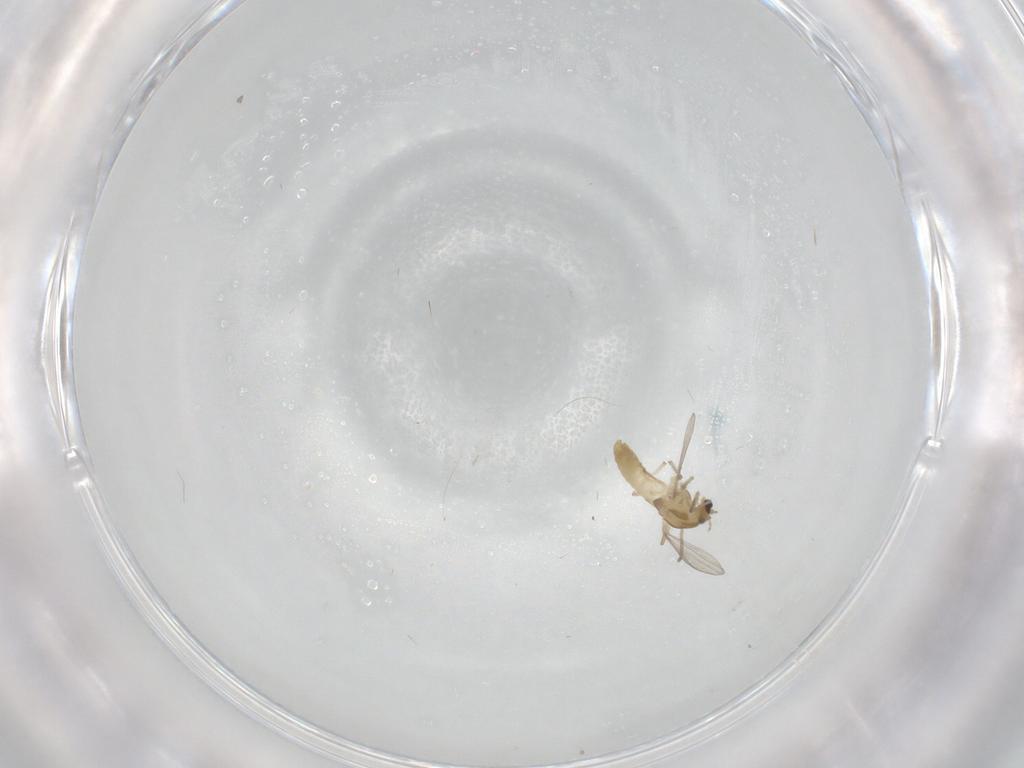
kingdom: Animalia
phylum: Arthropoda
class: Insecta
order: Diptera
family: Chironomidae
